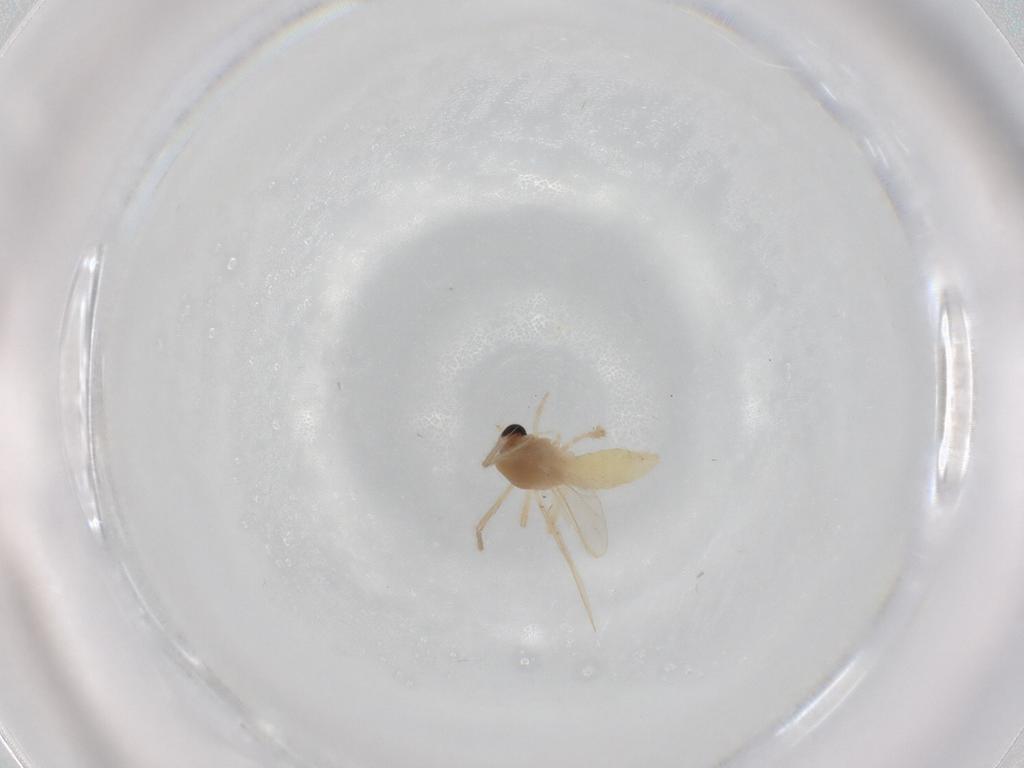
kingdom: Animalia
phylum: Arthropoda
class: Insecta
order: Diptera
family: Chironomidae
